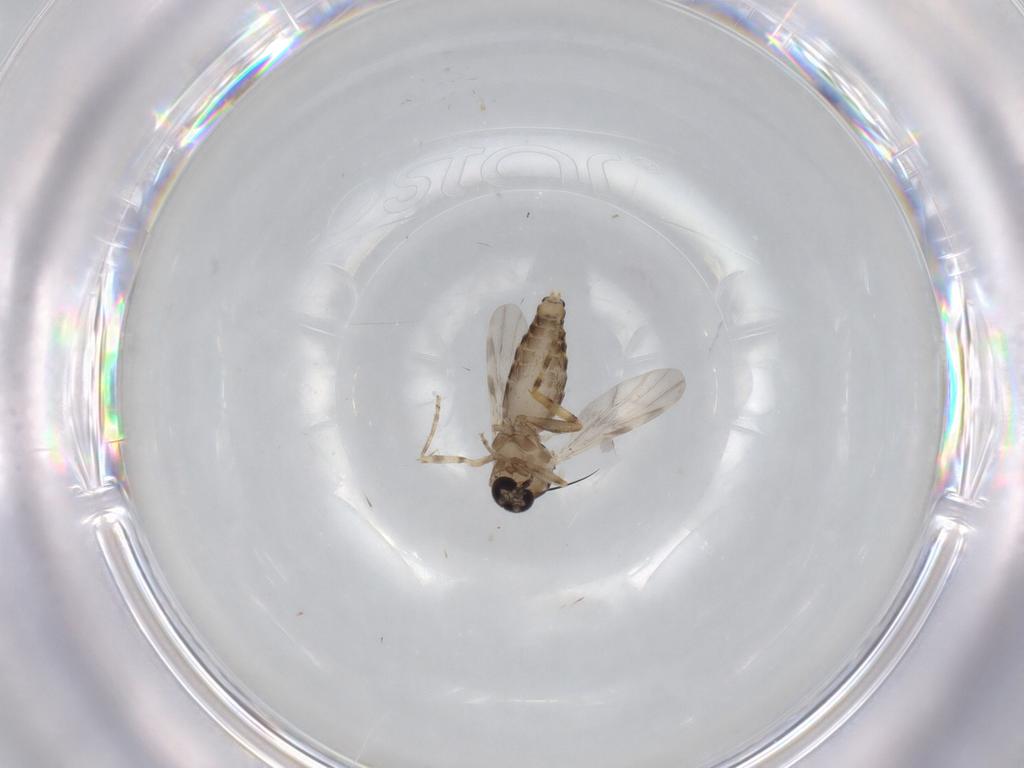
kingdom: Animalia
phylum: Arthropoda
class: Insecta
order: Diptera
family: Ceratopogonidae
